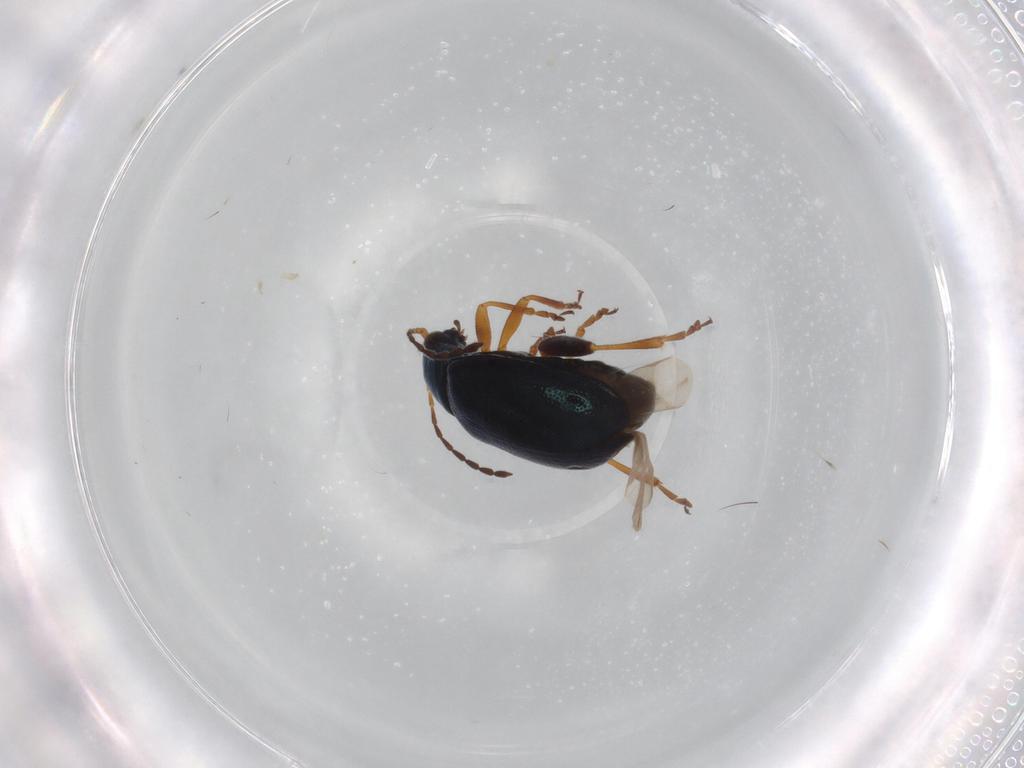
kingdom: Animalia
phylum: Arthropoda
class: Insecta
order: Coleoptera
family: Chrysomelidae
